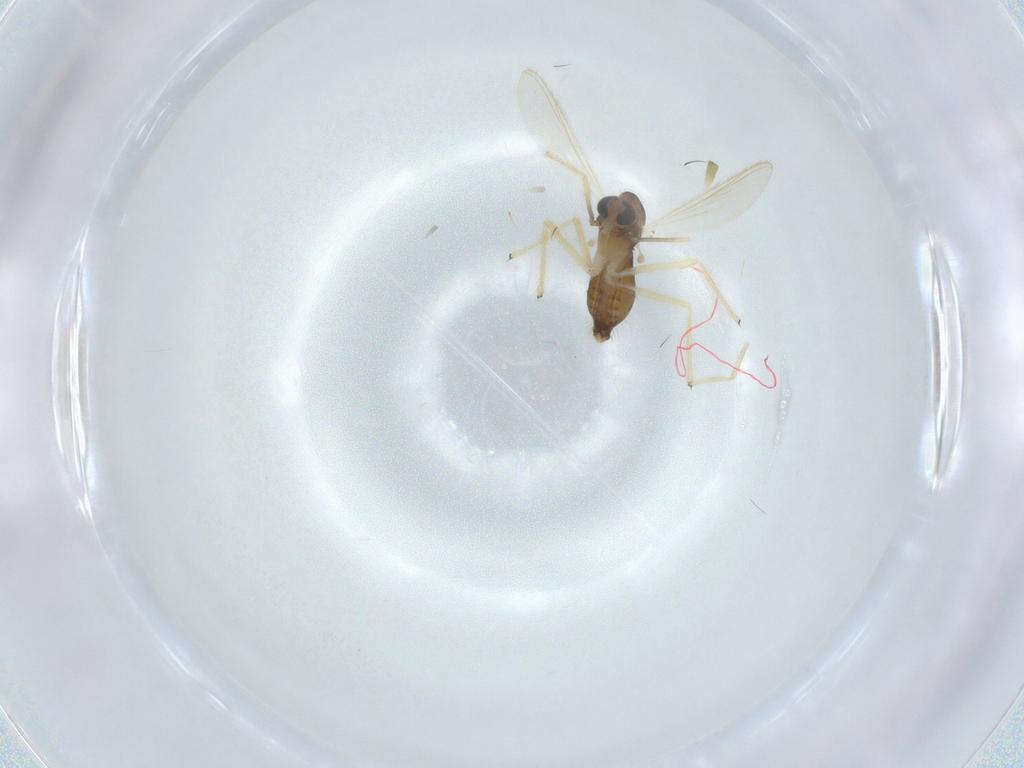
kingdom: Animalia
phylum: Arthropoda
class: Insecta
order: Diptera
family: Chironomidae
